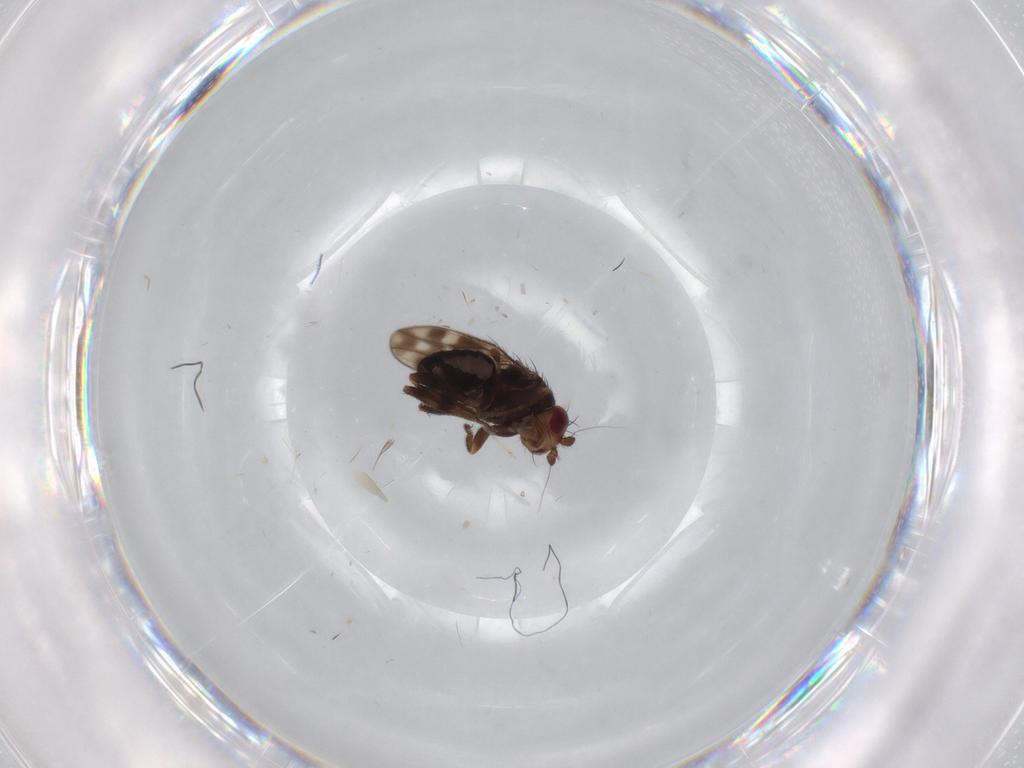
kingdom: Animalia
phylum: Arthropoda
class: Insecta
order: Diptera
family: Sphaeroceridae
